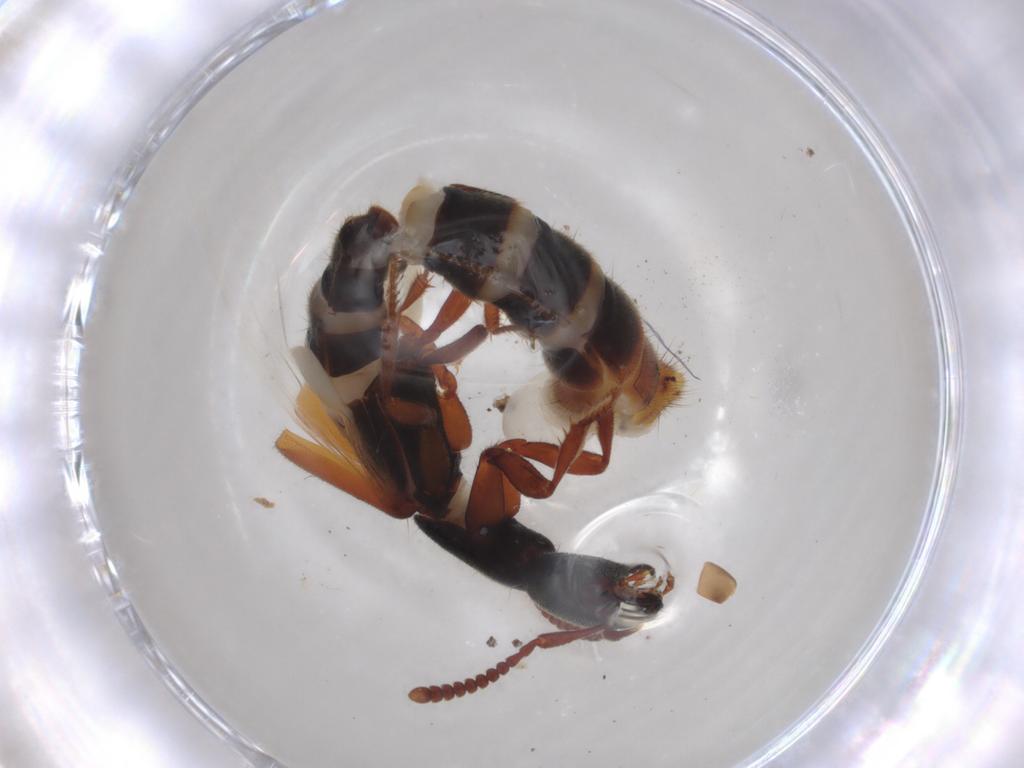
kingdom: Animalia
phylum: Arthropoda
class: Insecta
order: Coleoptera
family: Staphylinidae
